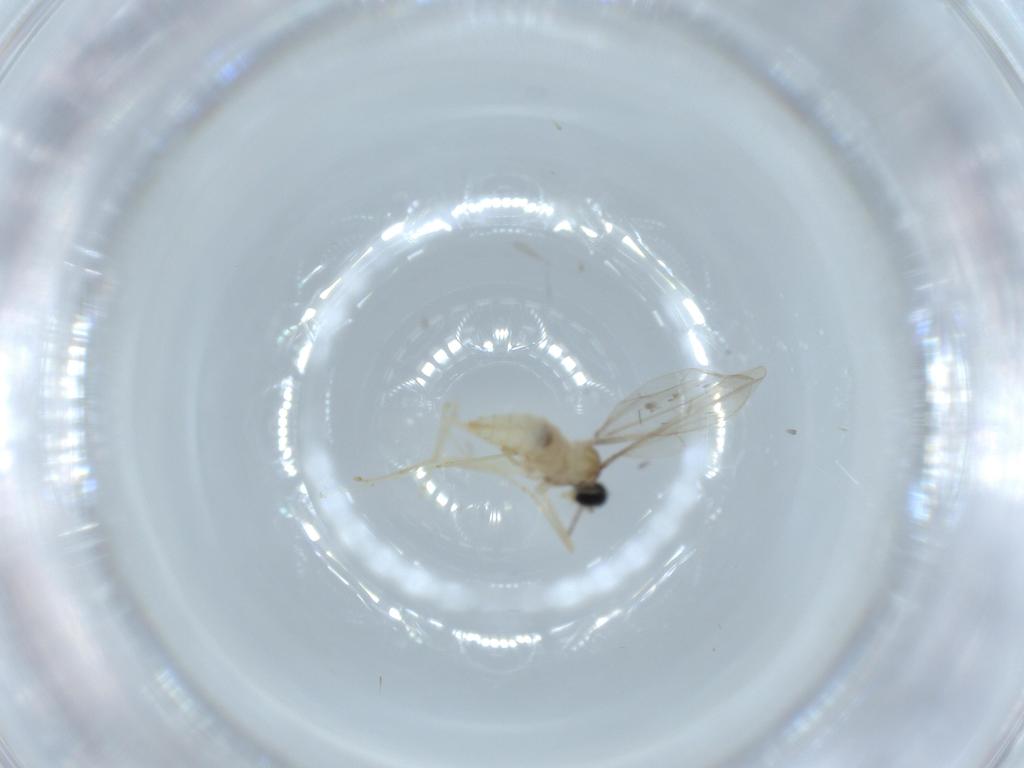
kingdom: Animalia
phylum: Arthropoda
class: Insecta
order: Diptera
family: Cecidomyiidae
